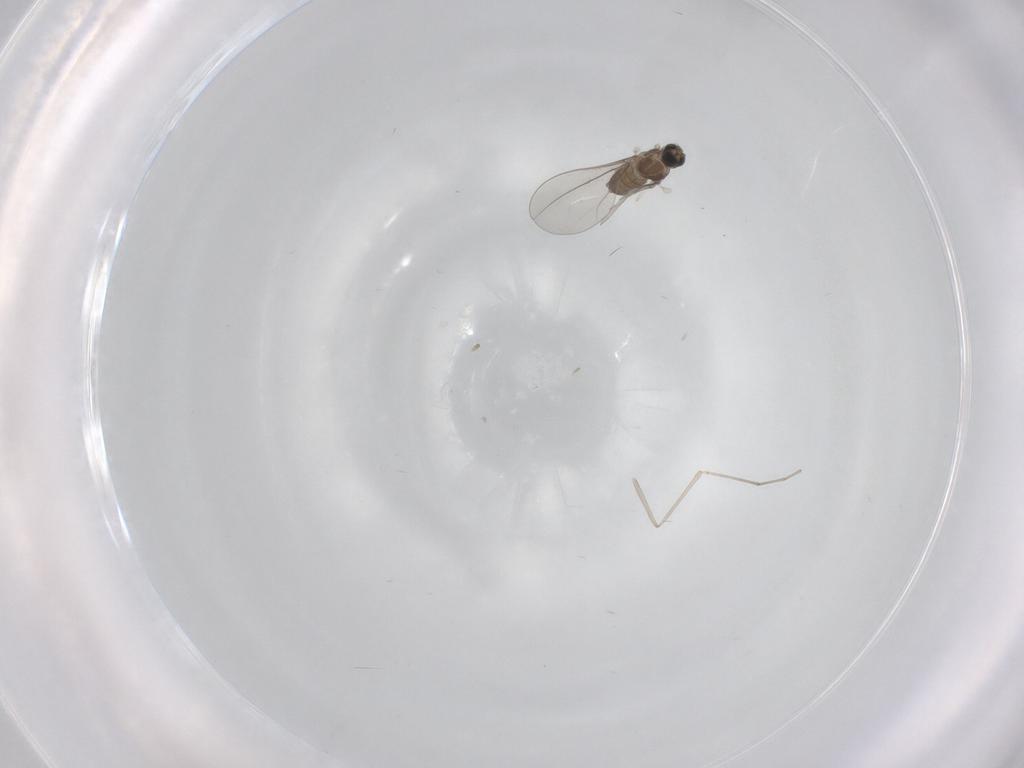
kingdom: Animalia
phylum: Arthropoda
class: Insecta
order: Diptera
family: Cecidomyiidae
